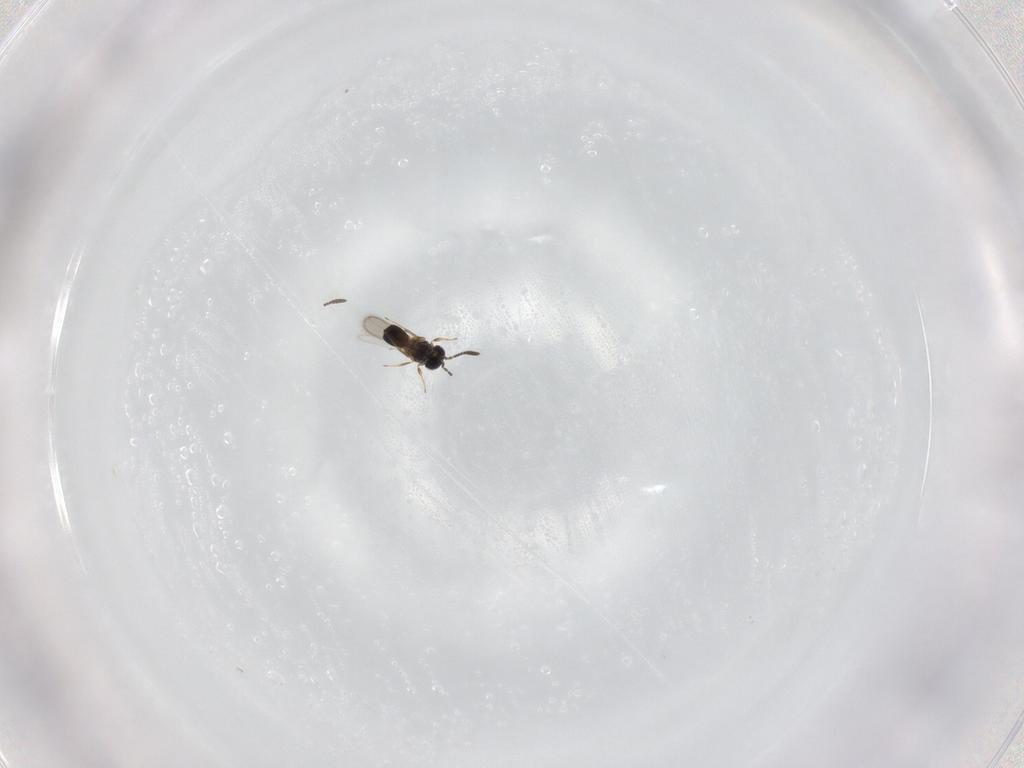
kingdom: Animalia
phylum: Arthropoda
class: Insecta
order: Hymenoptera
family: Scelionidae
